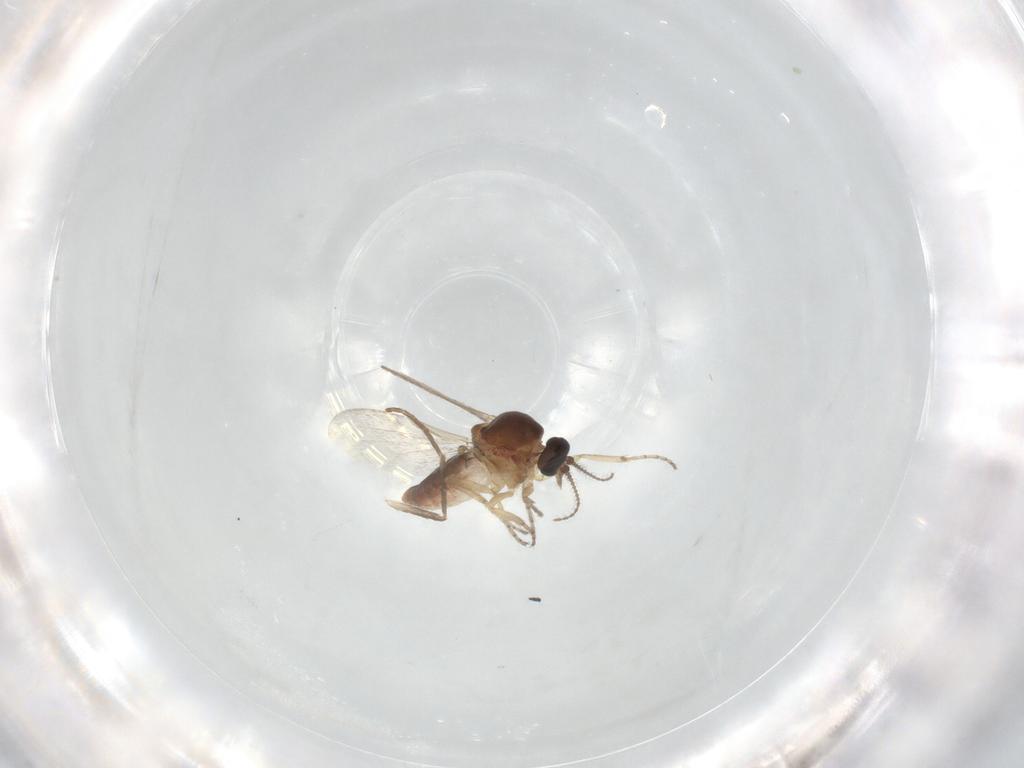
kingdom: Animalia
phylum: Arthropoda
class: Insecta
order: Diptera
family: Ceratopogonidae
